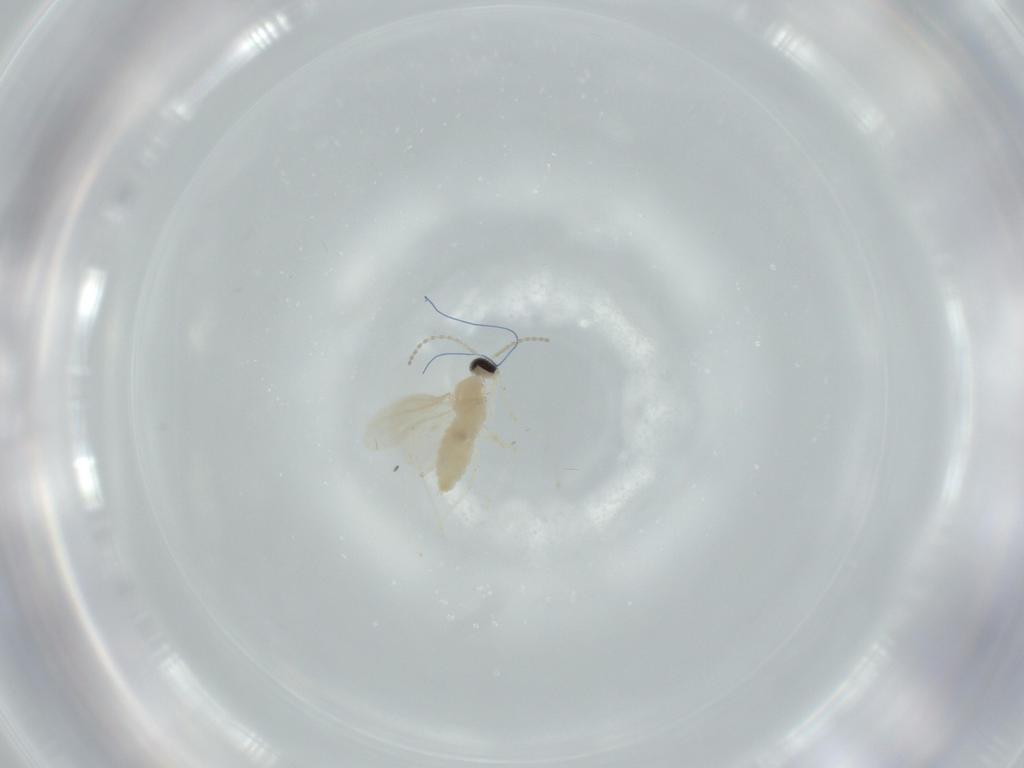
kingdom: Animalia
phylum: Arthropoda
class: Insecta
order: Diptera
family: Cecidomyiidae
